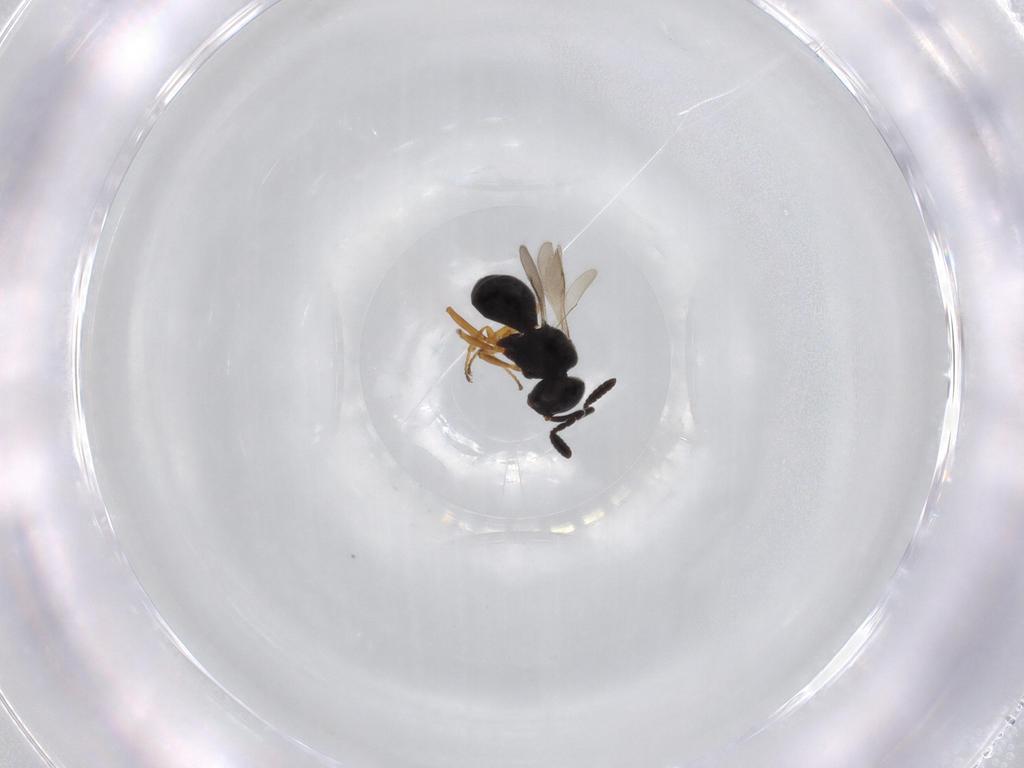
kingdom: Animalia
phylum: Arthropoda
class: Insecta
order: Hymenoptera
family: Scelionidae
